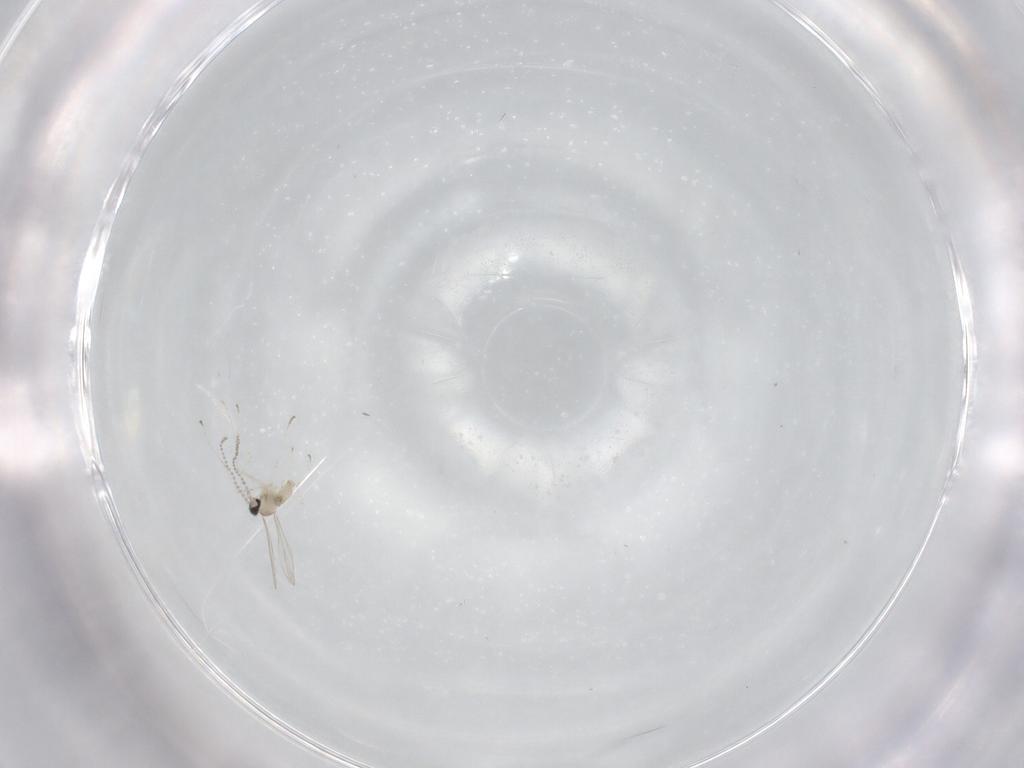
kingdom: Animalia
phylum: Arthropoda
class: Insecta
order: Diptera
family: Cecidomyiidae
